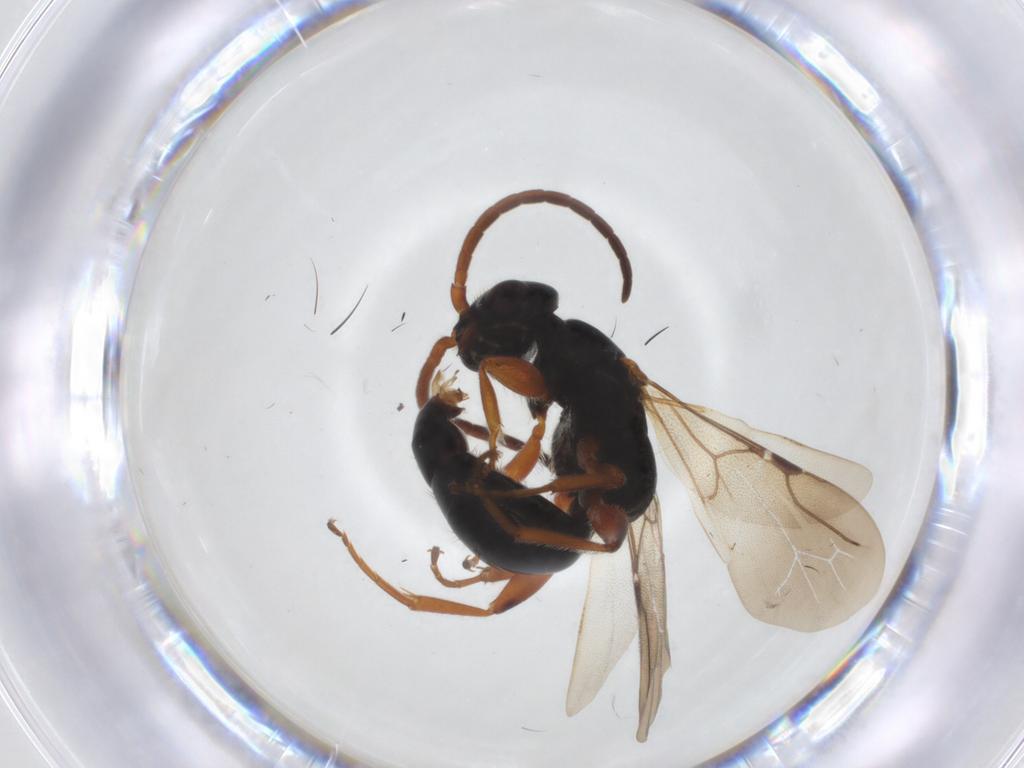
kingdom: Animalia
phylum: Arthropoda
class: Insecta
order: Hymenoptera
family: Bethylidae
